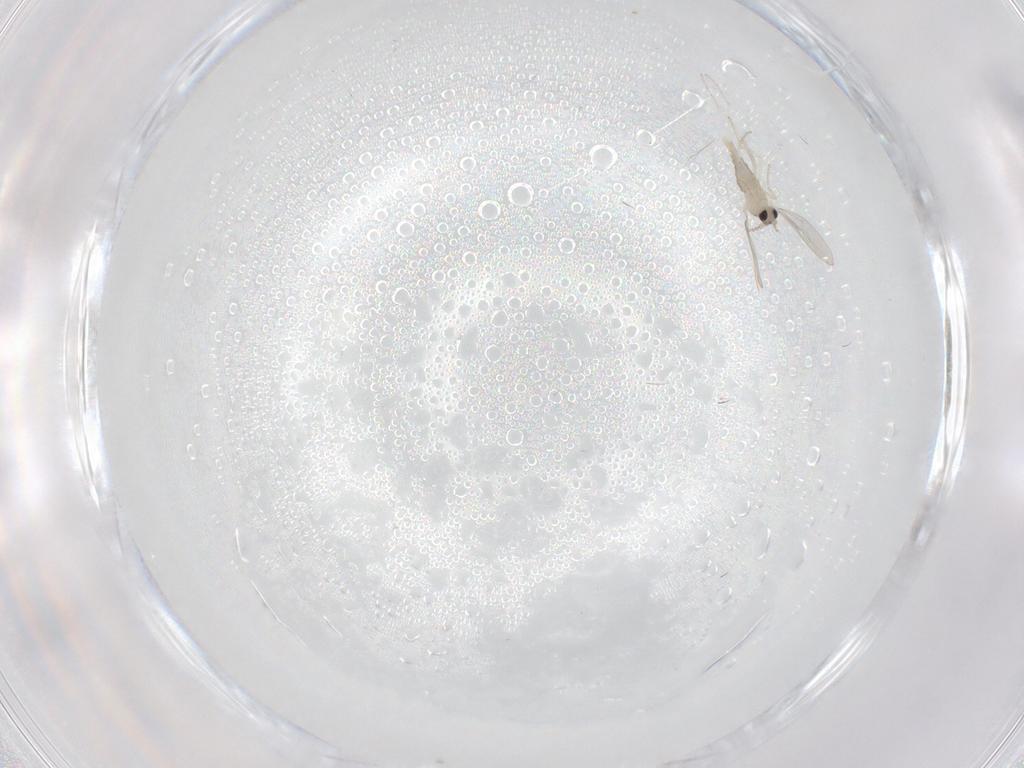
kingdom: Animalia
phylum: Arthropoda
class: Insecta
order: Diptera
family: Cecidomyiidae
